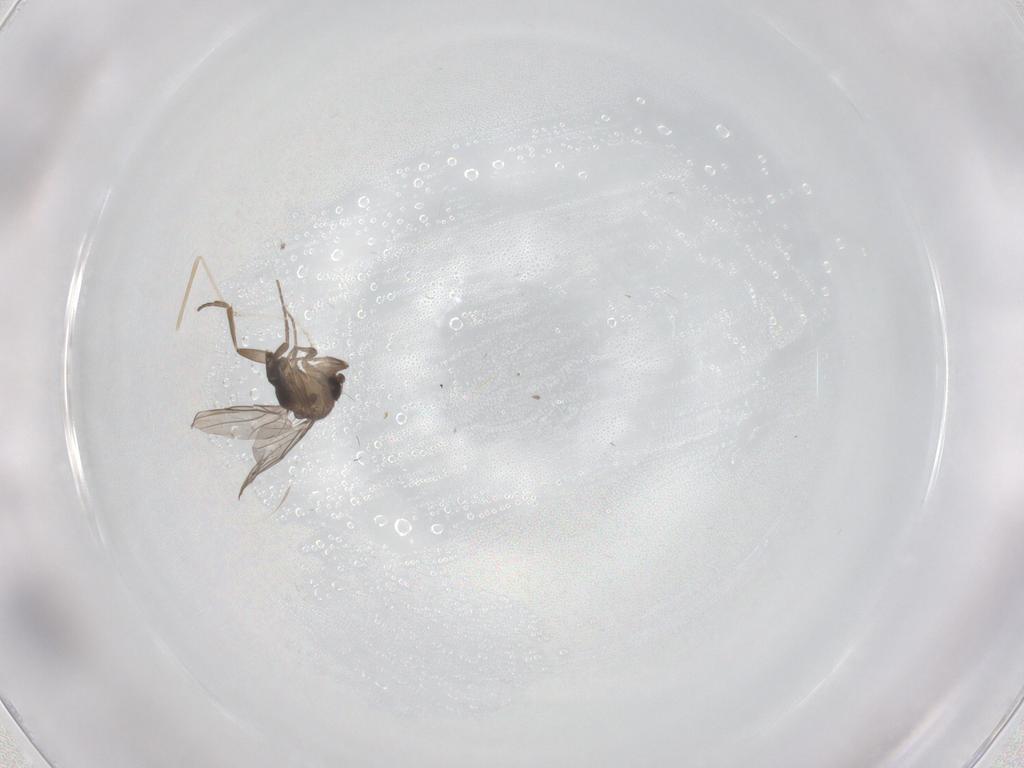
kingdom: Animalia
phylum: Arthropoda
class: Insecta
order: Diptera
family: Cecidomyiidae
